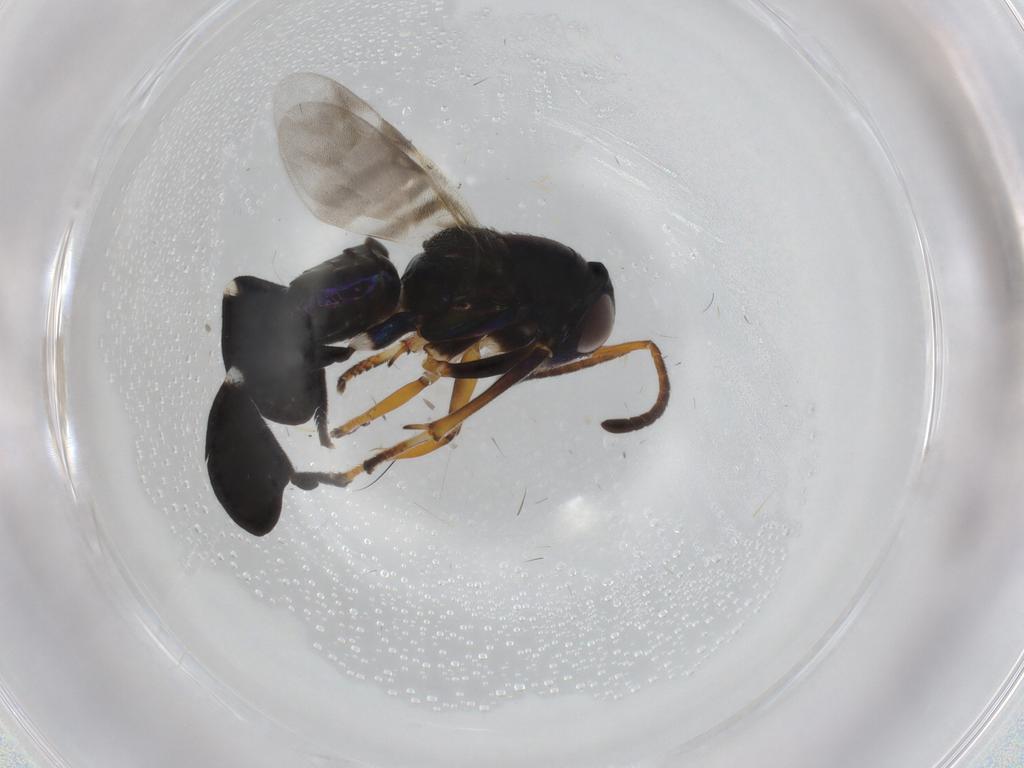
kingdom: Animalia
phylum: Arthropoda
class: Insecta
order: Hymenoptera
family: Formicidae
